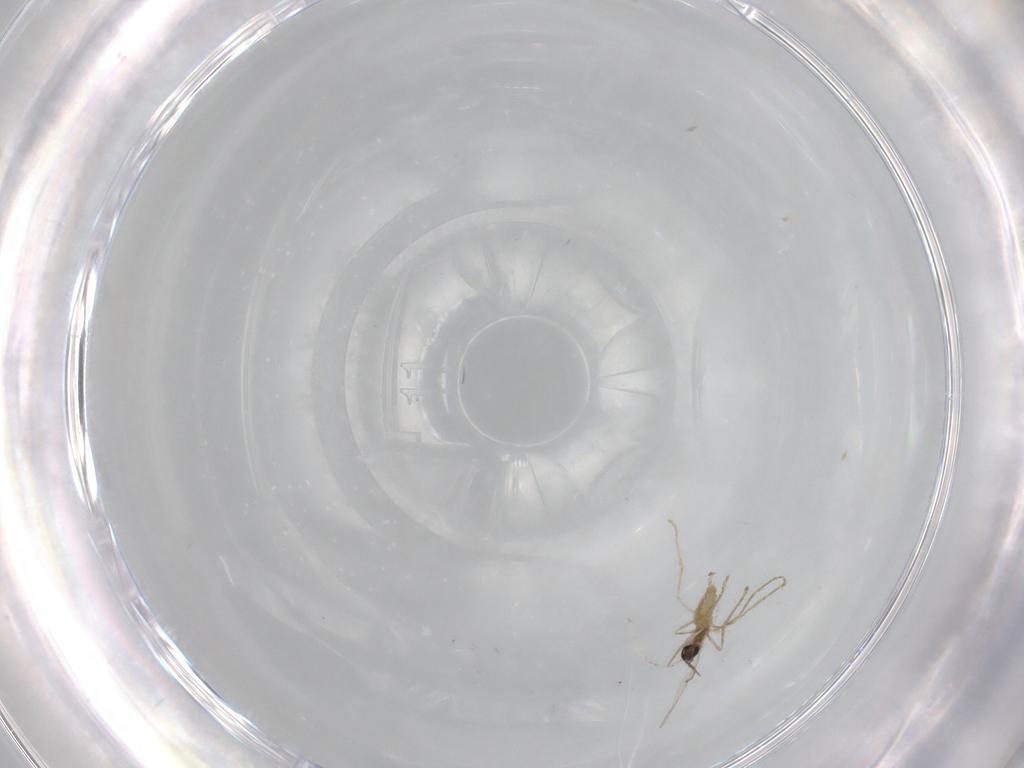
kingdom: Animalia
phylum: Arthropoda
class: Insecta
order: Diptera
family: Cecidomyiidae
